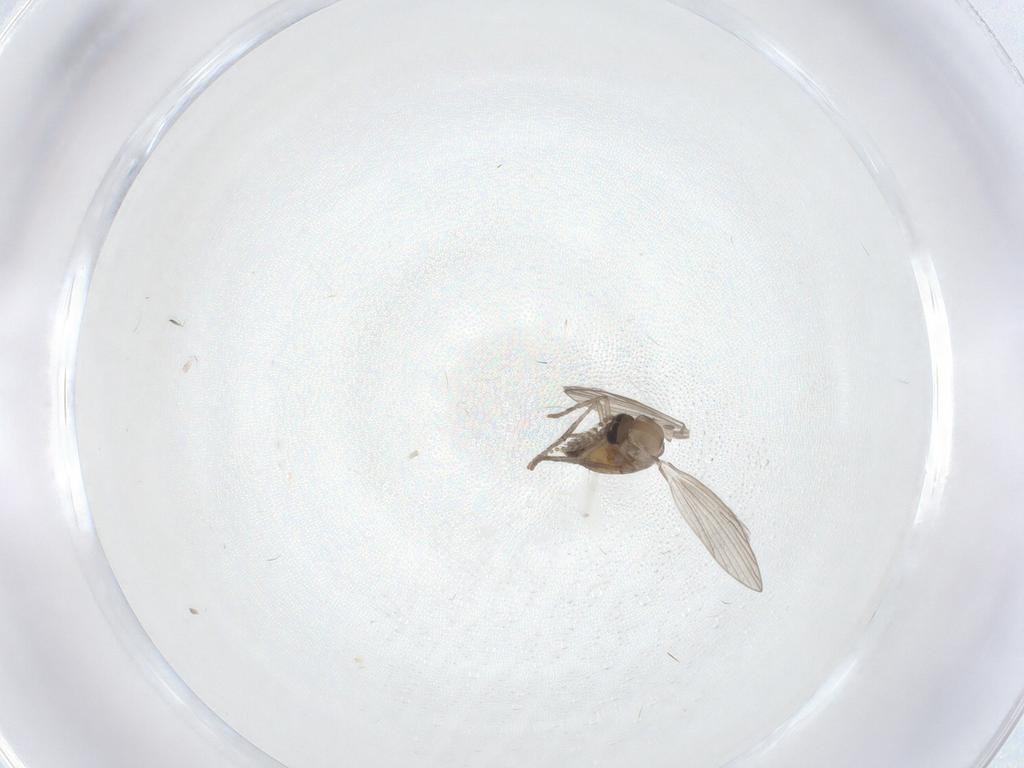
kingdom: Animalia
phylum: Arthropoda
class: Insecta
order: Diptera
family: Psychodidae
